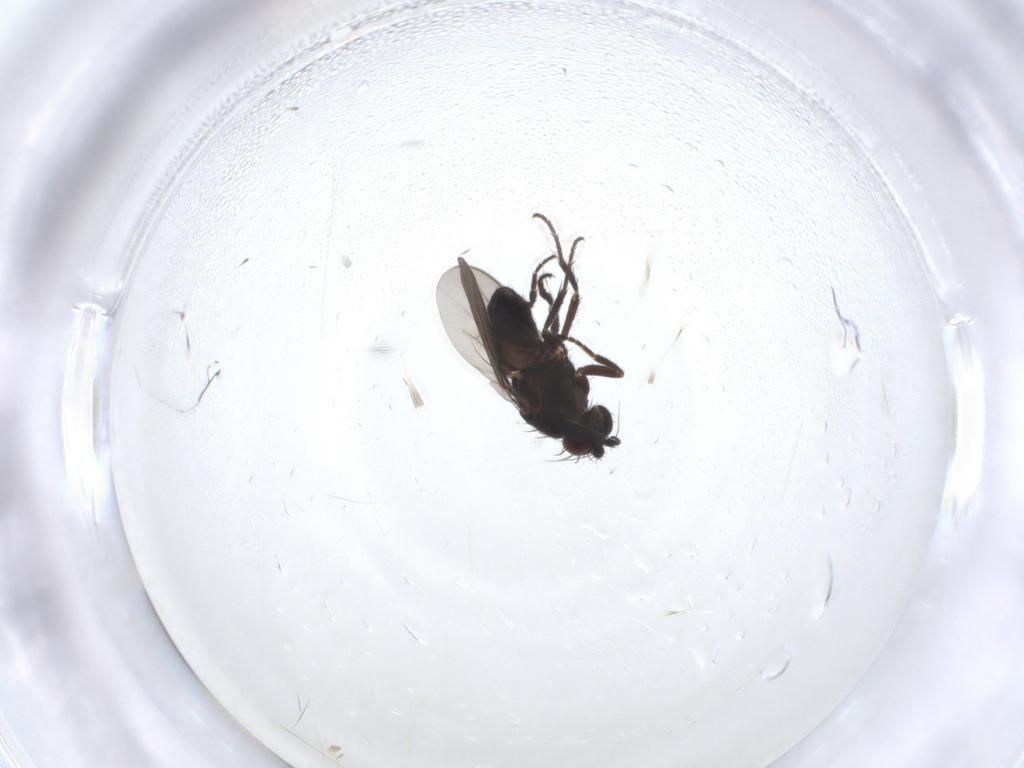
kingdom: Animalia
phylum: Arthropoda
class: Insecta
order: Diptera
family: Sphaeroceridae
